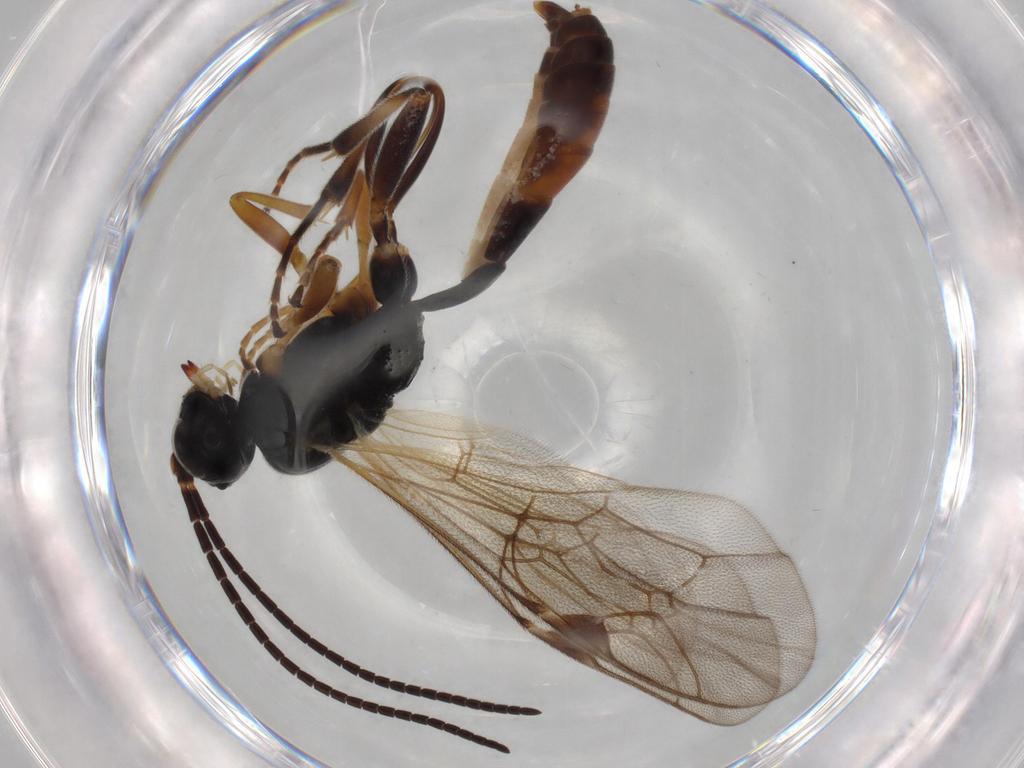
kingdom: Animalia
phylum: Arthropoda
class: Insecta
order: Hymenoptera
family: Ichneumonidae
